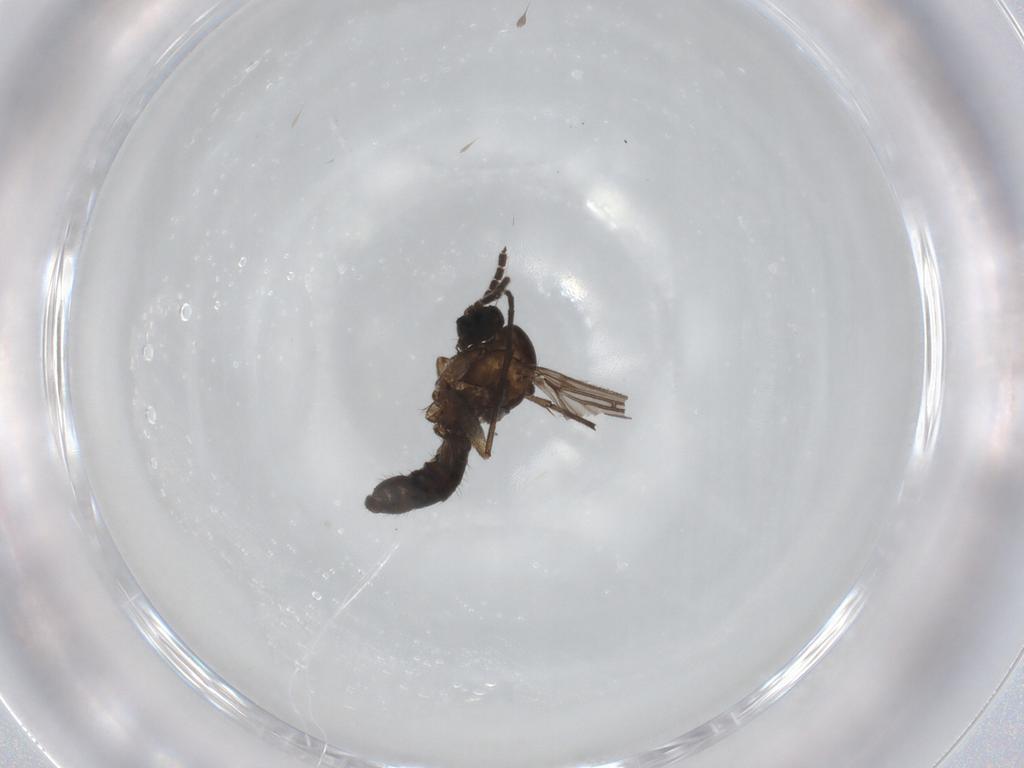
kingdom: Animalia
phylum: Arthropoda
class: Insecta
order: Diptera
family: Sciaridae
